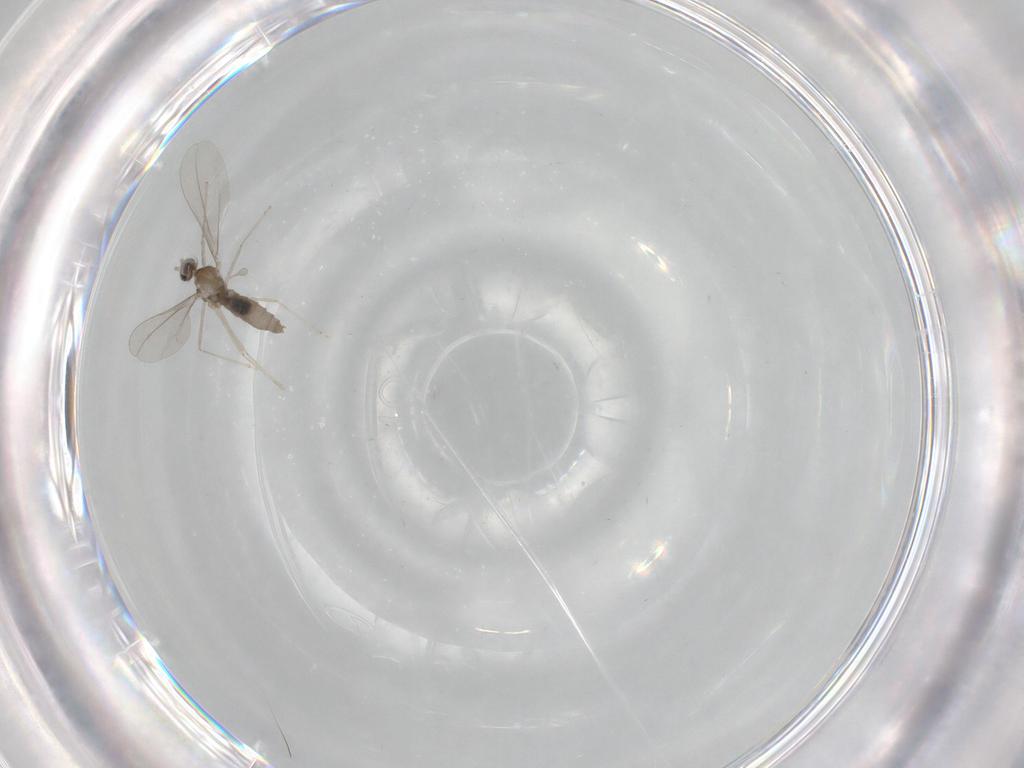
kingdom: Animalia
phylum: Arthropoda
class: Insecta
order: Diptera
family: Cecidomyiidae
